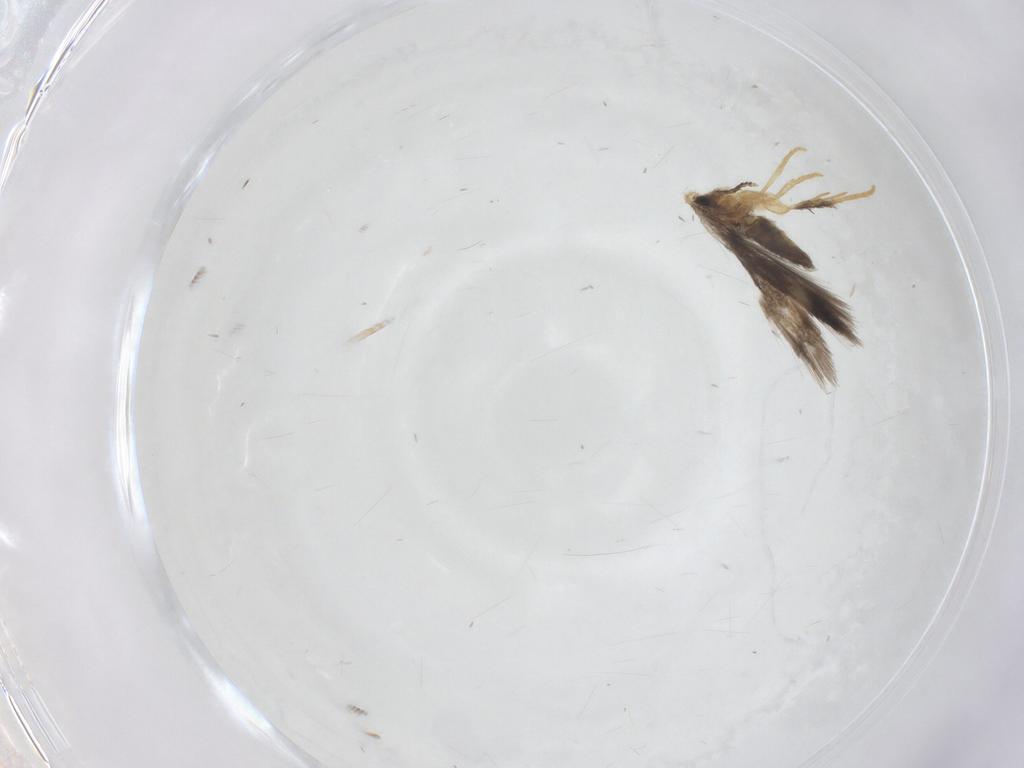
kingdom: Animalia
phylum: Arthropoda
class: Insecta
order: Lepidoptera
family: Nepticulidae
